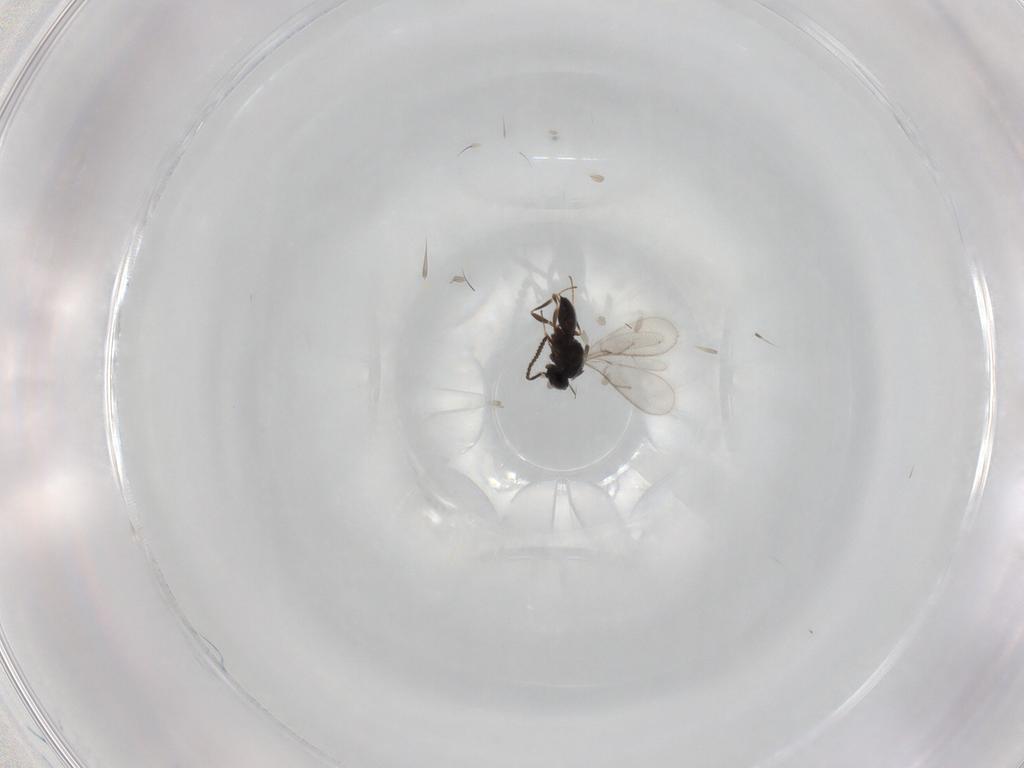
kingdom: Animalia
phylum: Arthropoda
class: Insecta
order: Hymenoptera
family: Scelionidae
